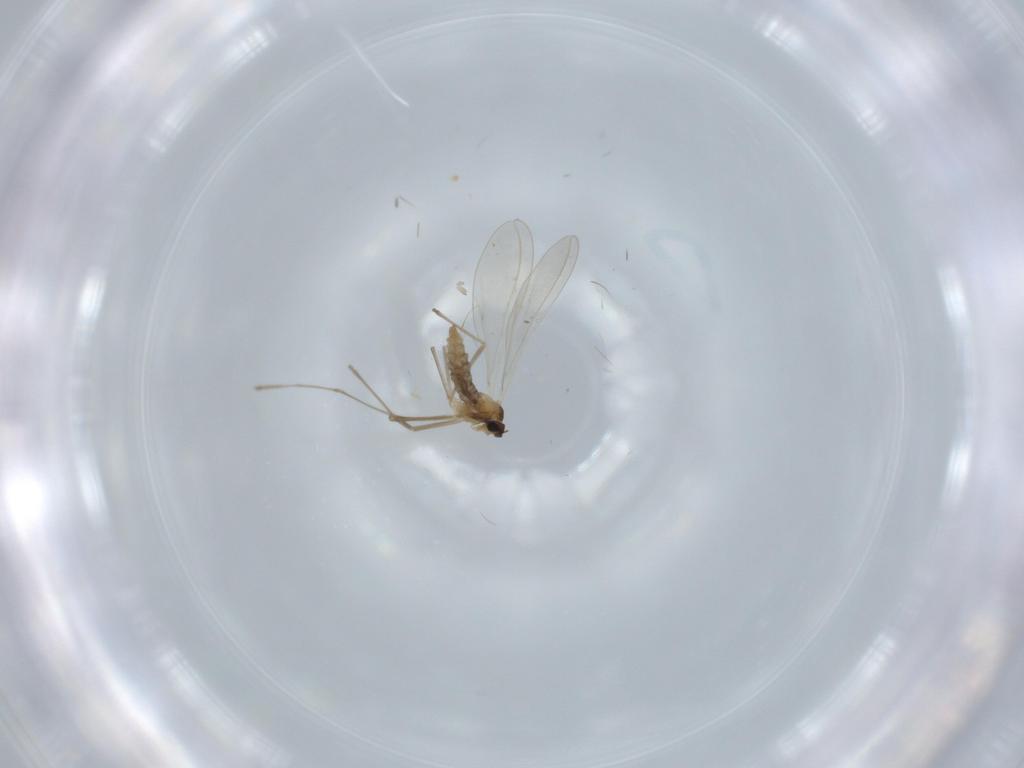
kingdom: Animalia
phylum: Arthropoda
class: Insecta
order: Diptera
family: Cecidomyiidae
